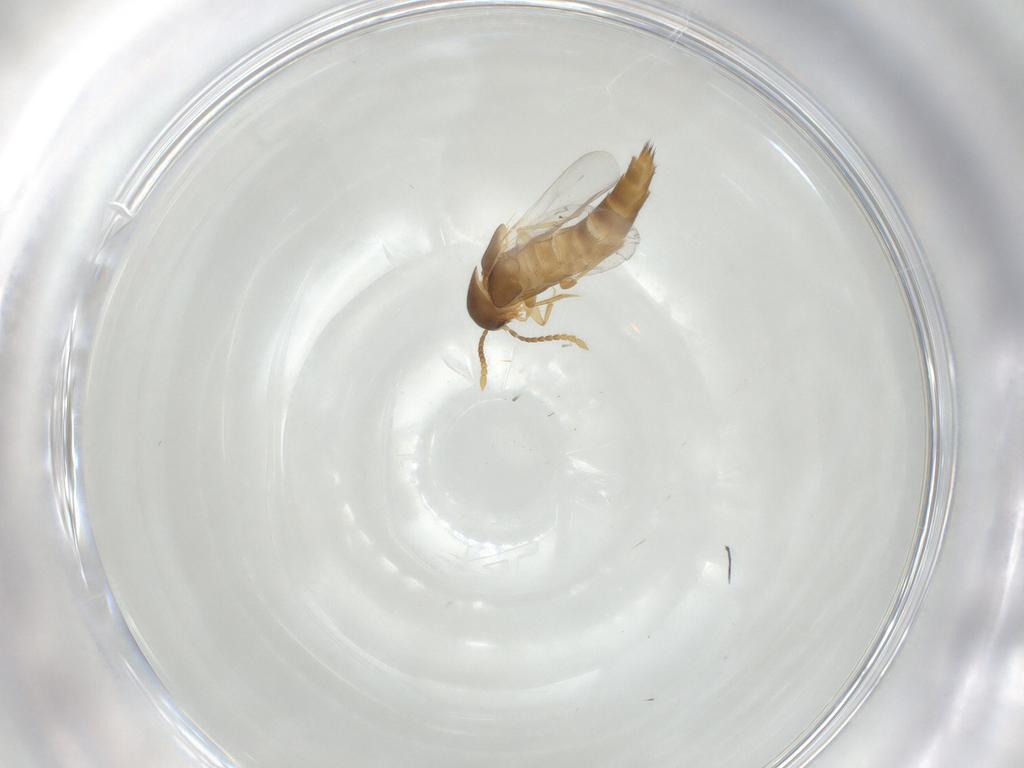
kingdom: Animalia
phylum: Arthropoda
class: Insecta
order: Coleoptera
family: Staphylinidae
